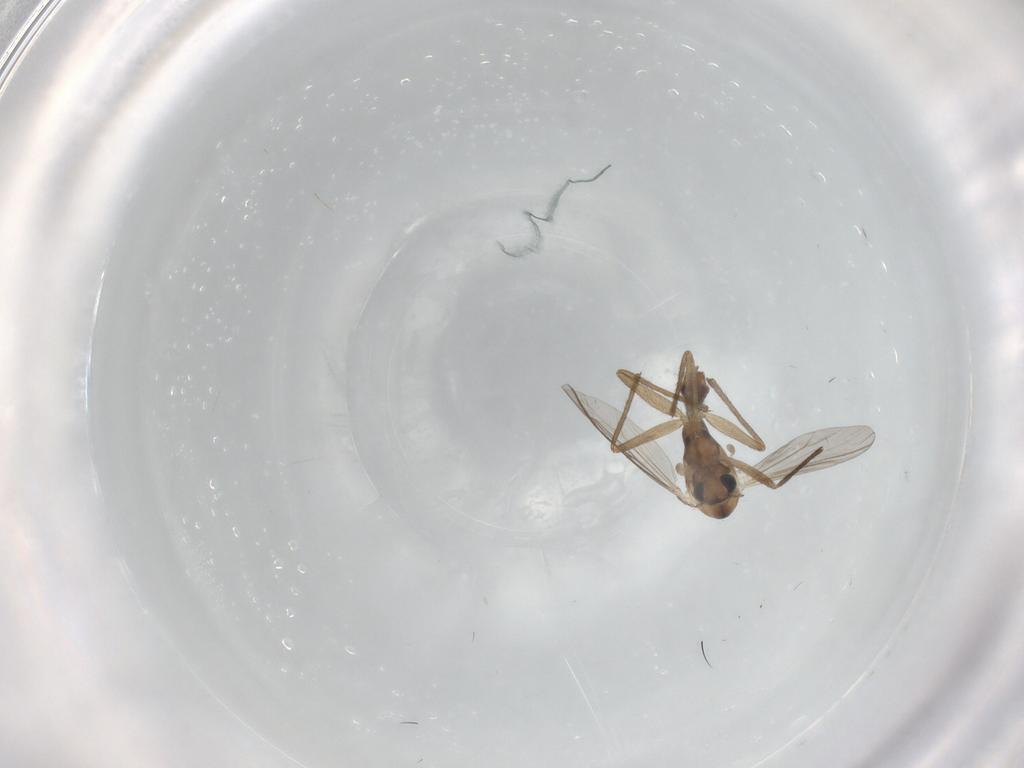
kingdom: Animalia
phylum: Arthropoda
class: Insecta
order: Diptera
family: Chironomidae
